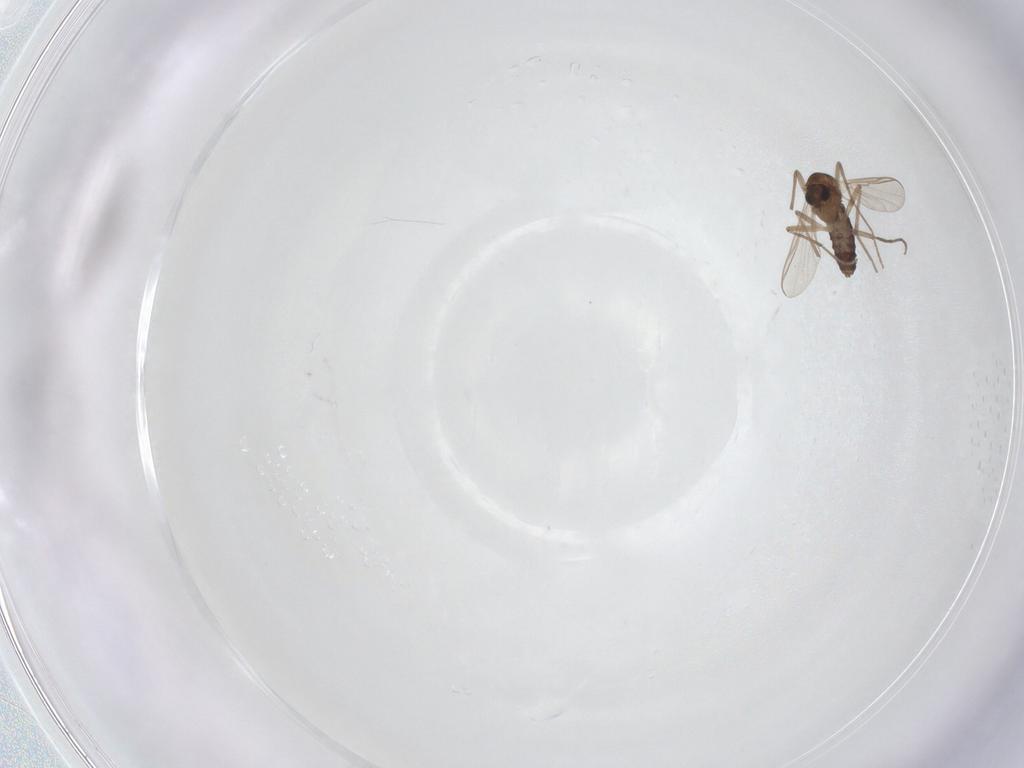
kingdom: Animalia
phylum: Arthropoda
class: Insecta
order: Diptera
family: Chironomidae
